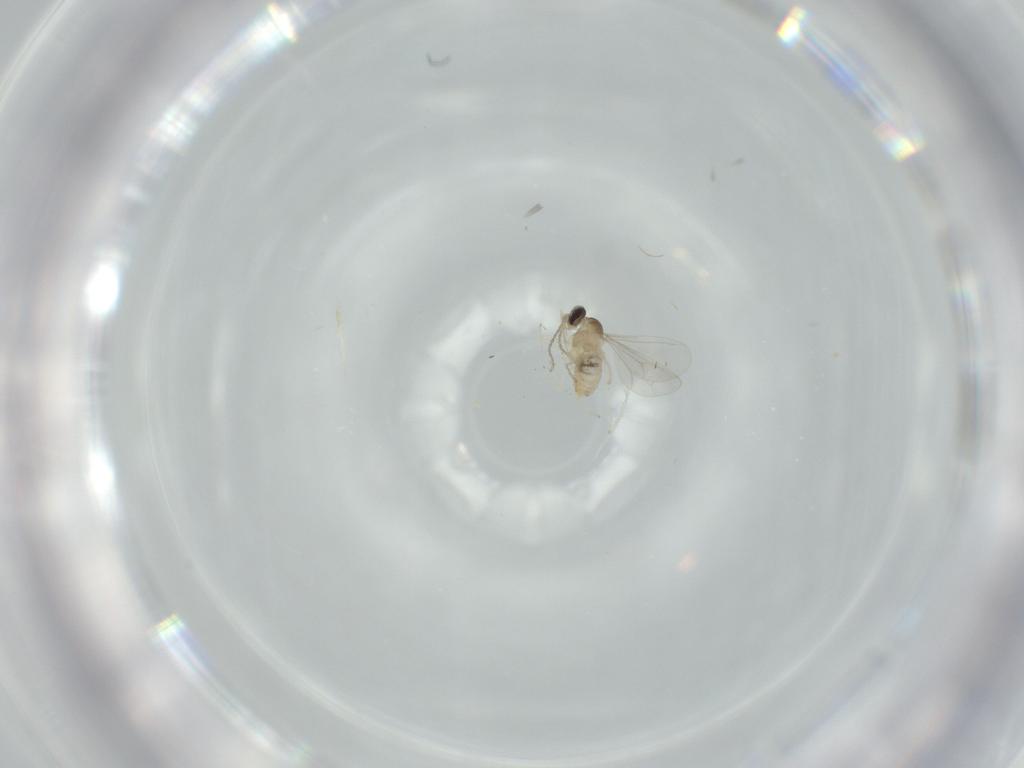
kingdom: Animalia
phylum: Arthropoda
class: Insecta
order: Diptera
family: Cecidomyiidae
